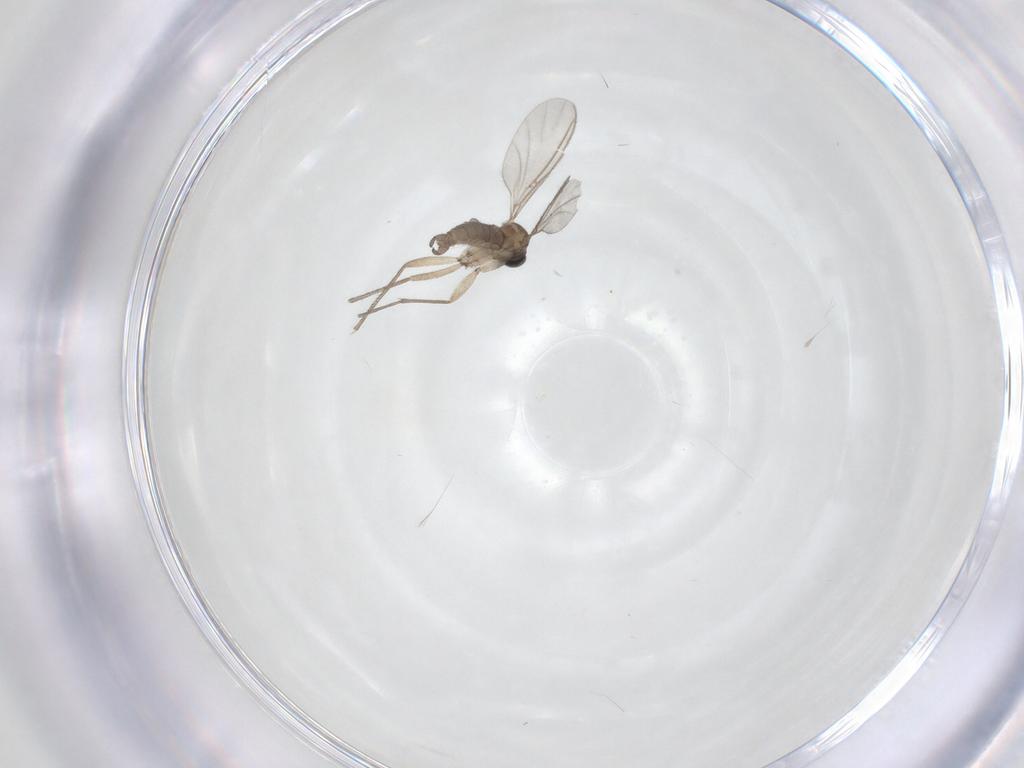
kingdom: Animalia
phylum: Arthropoda
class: Insecta
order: Diptera
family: Sciaridae
